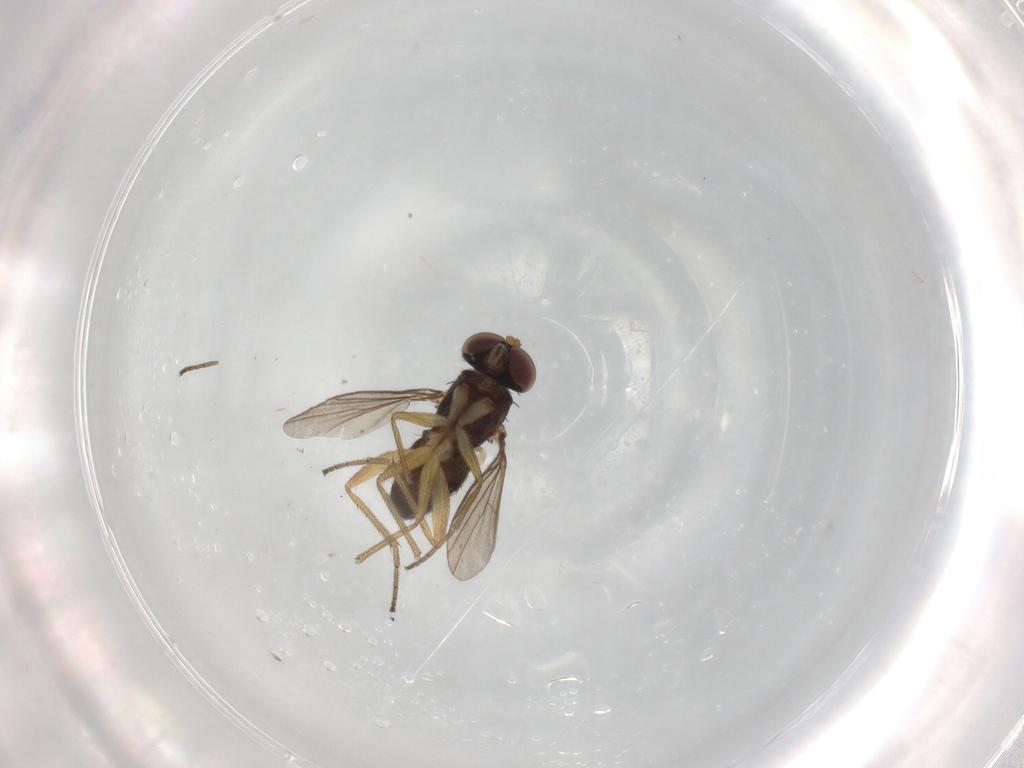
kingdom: Animalia
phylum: Arthropoda
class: Insecta
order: Diptera
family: Dolichopodidae
